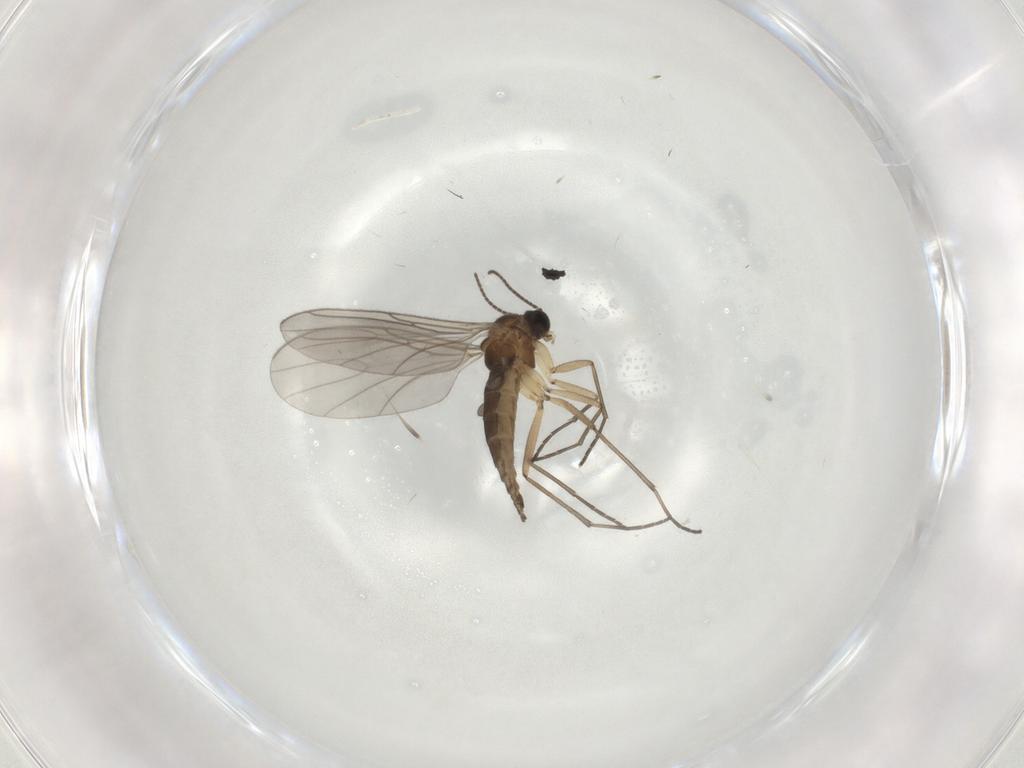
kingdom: Animalia
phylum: Arthropoda
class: Insecta
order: Diptera
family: Sciaridae
